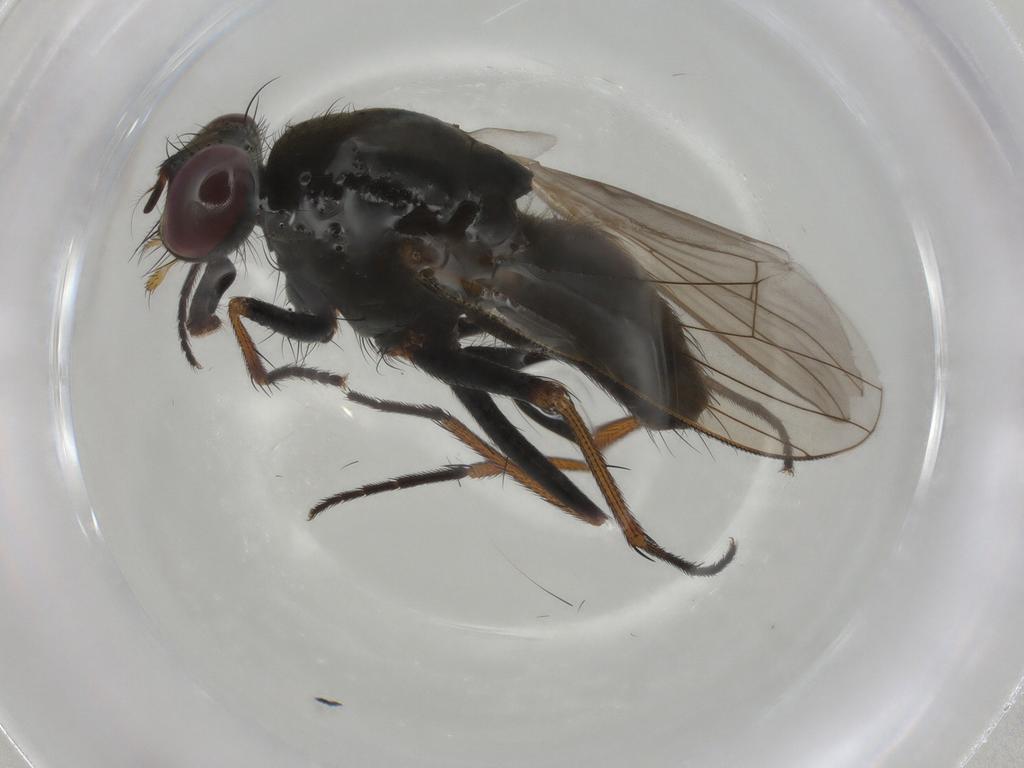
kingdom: Animalia
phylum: Arthropoda
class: Insecta
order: Diptera
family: Muscidae
